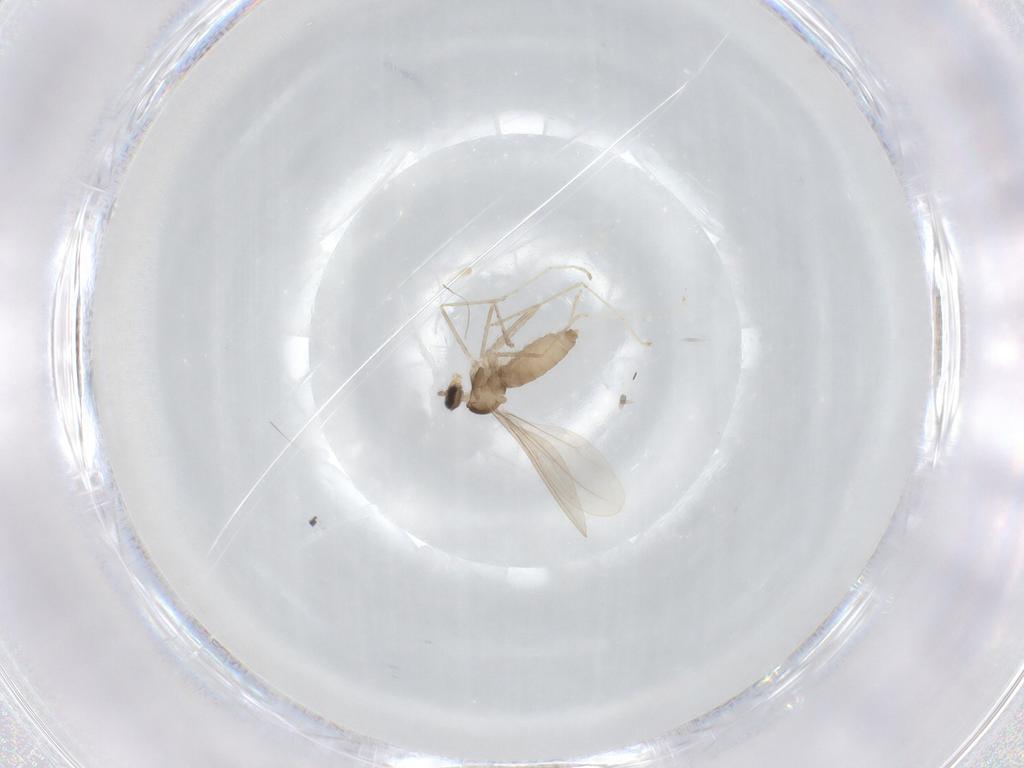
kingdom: Animalia
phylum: Arthropoda
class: Insecta
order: Diptera
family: Cecidomyiidae
